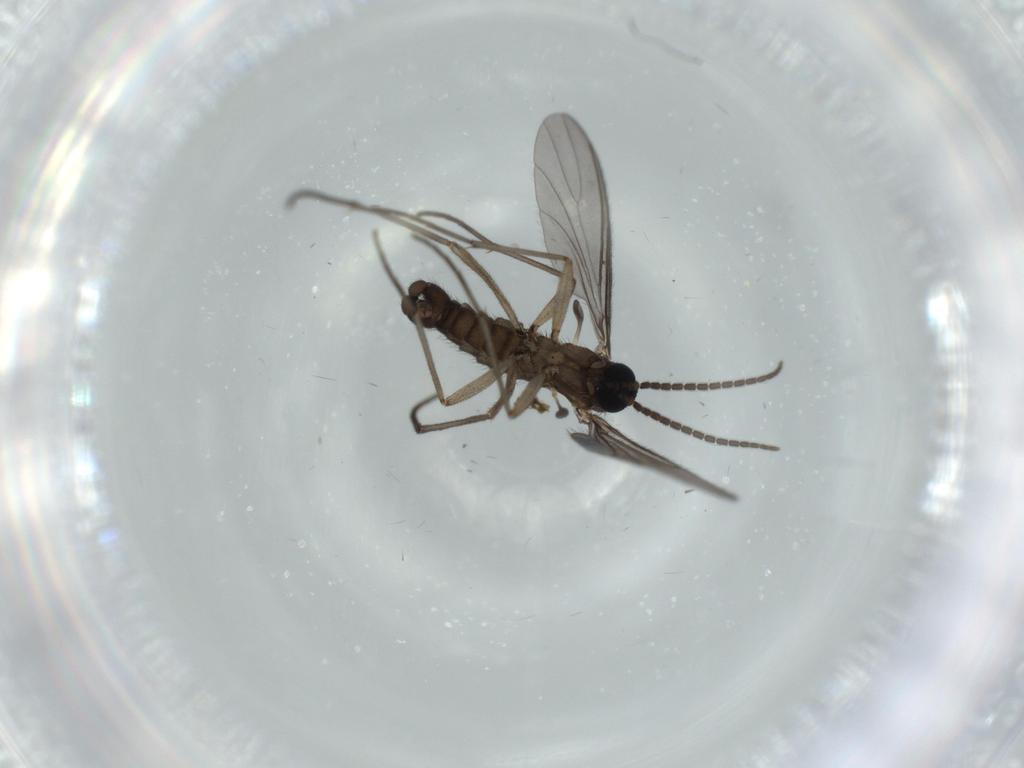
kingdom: Animalia
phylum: Arthropoda
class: Insecta
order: Diptera
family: Sciaridae
